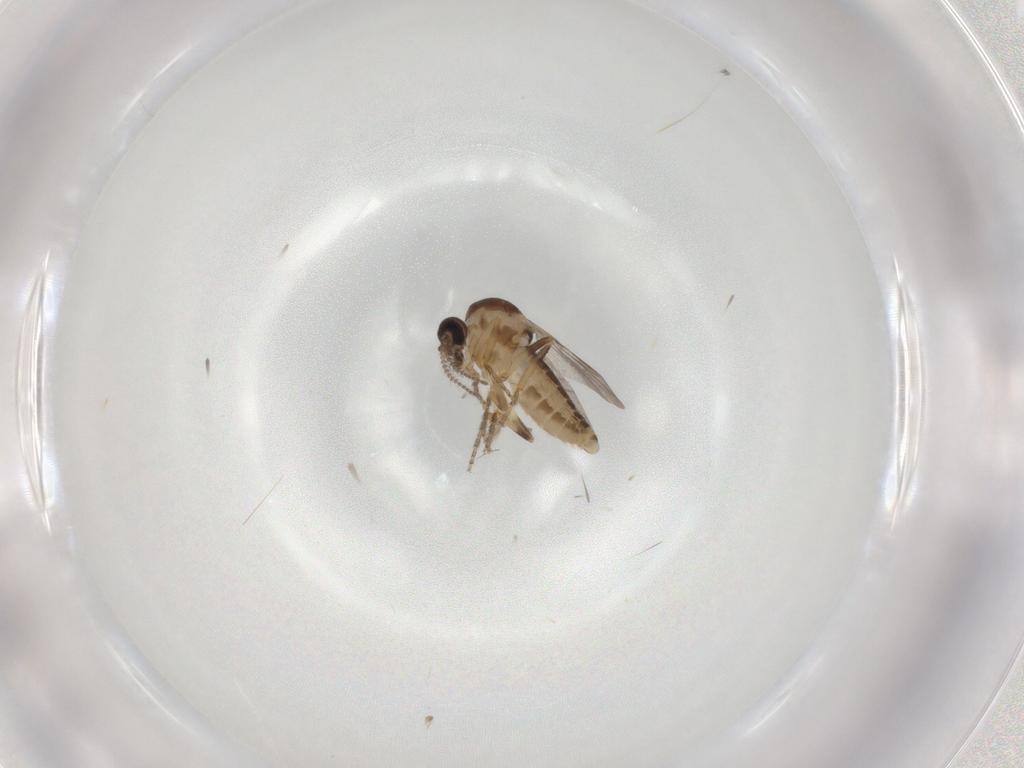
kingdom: Animalia
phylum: Arthropoda
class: Insecta
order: Diptera
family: Ceratopogonidae
